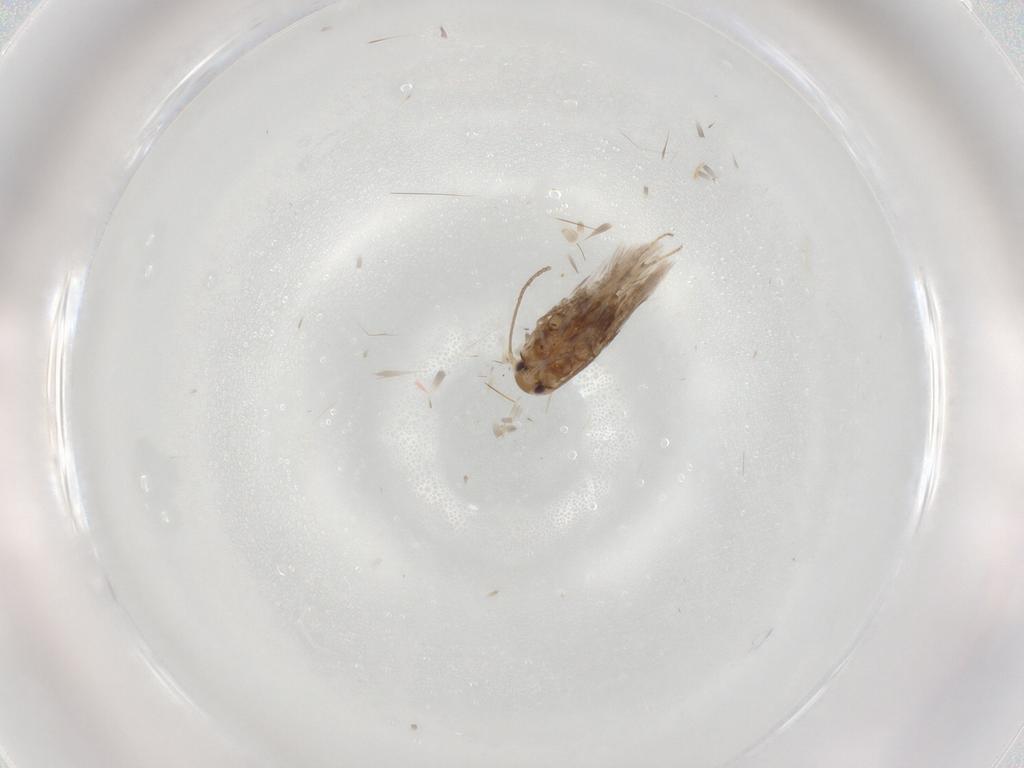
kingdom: Animalia
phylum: Arthropoda
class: Insecta
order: Lepidoptera
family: Nymphalidae
